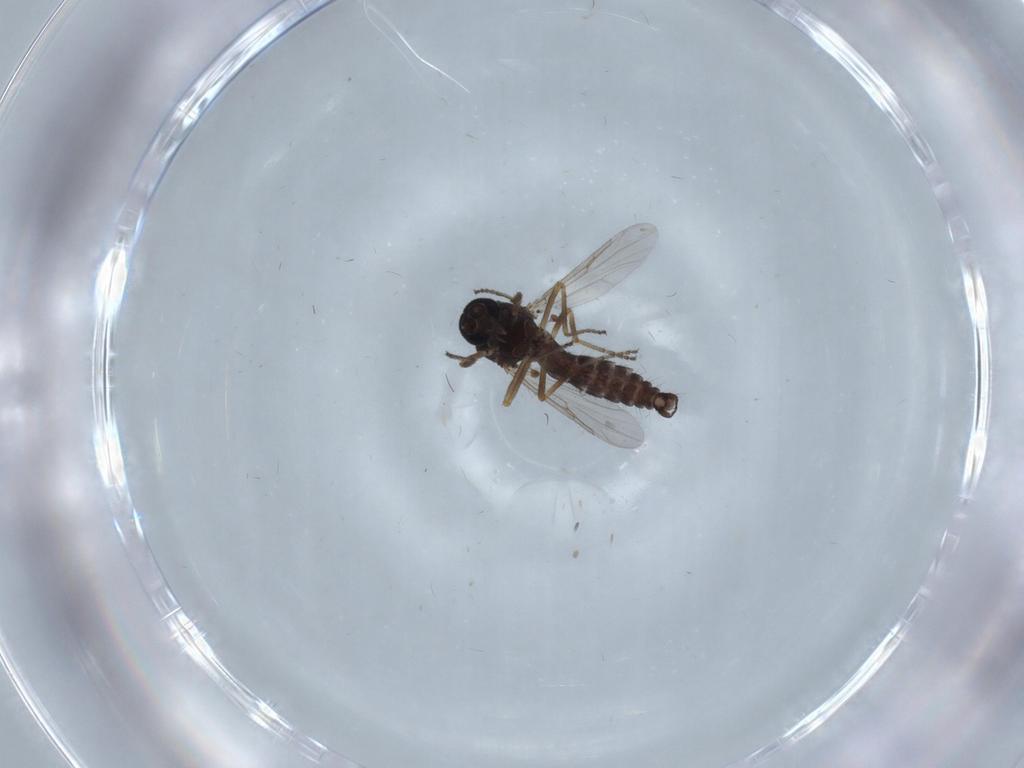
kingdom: Animalia
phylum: Arthropoda
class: Insecta
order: Diptera
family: Ceratopogonidae
